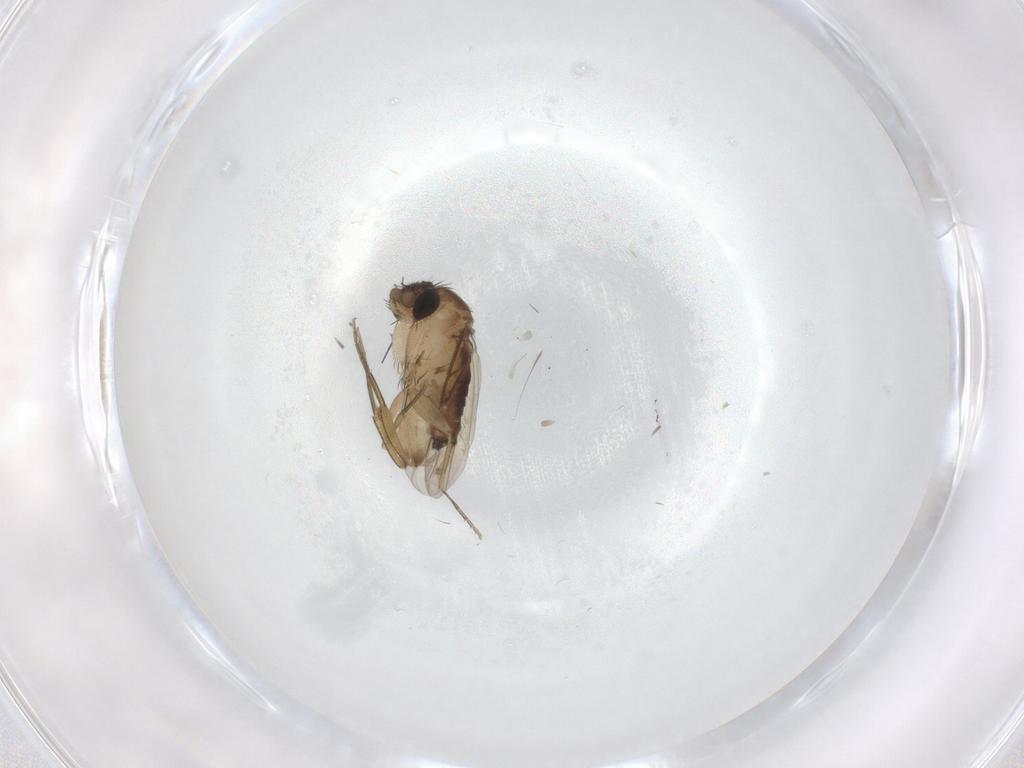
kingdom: Animalia
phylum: Arthropoda
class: Insecta
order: Diptera
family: Phoridae
